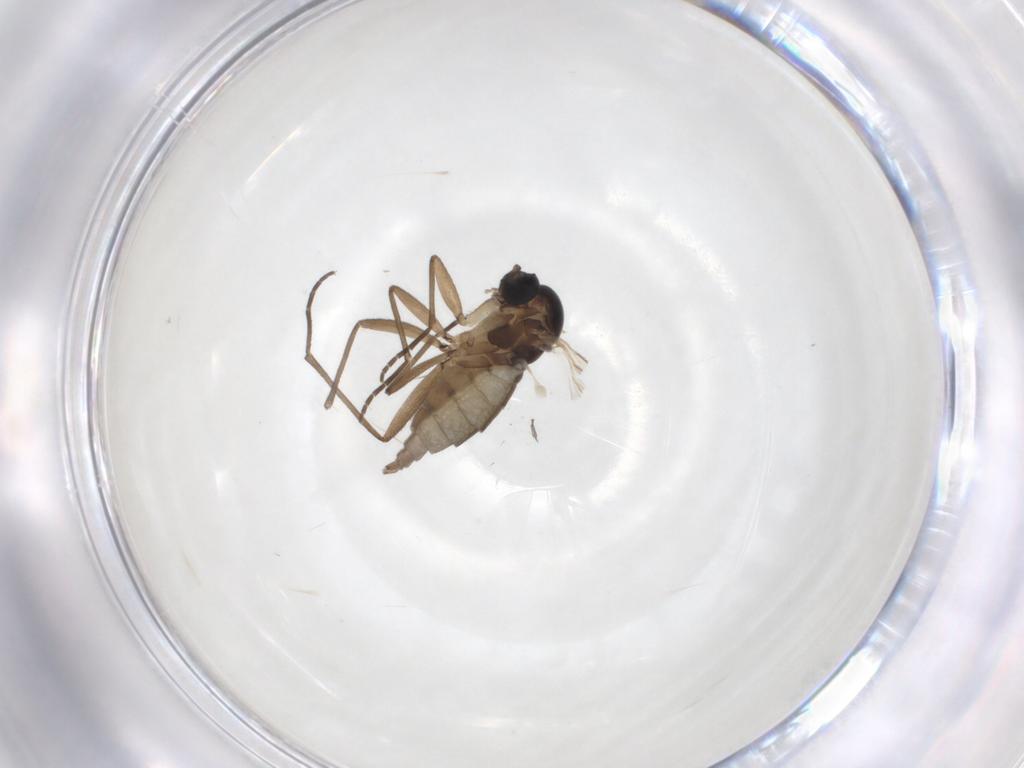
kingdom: Animalia
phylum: Arthropoda
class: Insecta
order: Diptera
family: Empididae
